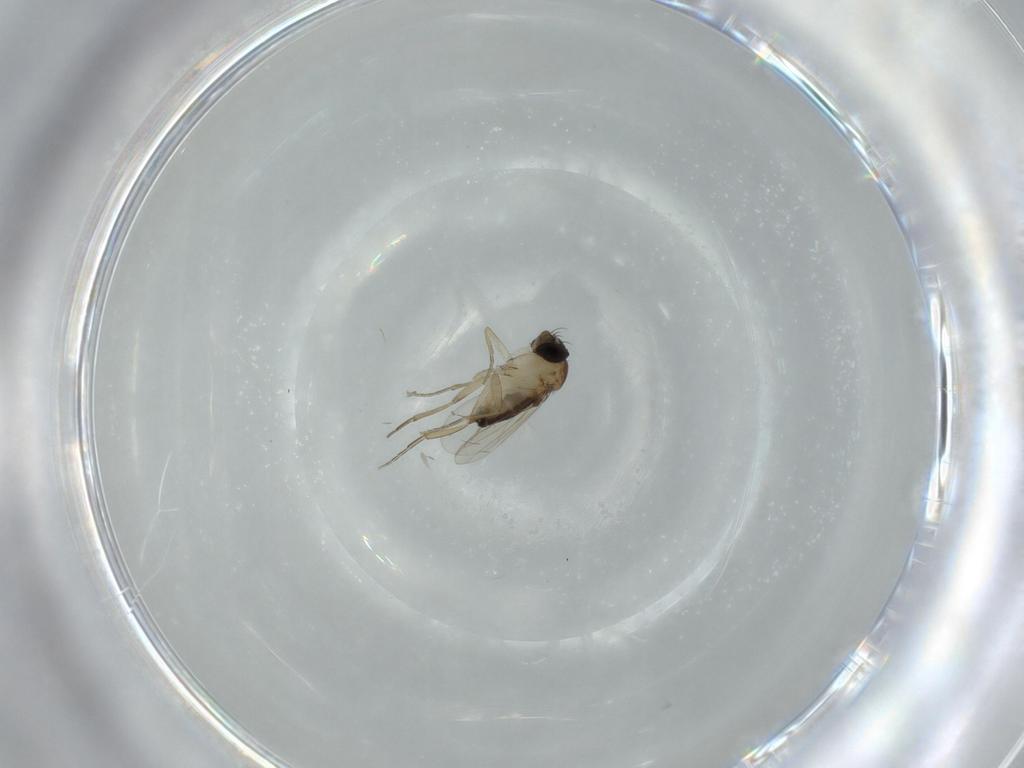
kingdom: Animalia
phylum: Arthropoda
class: Insecta
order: Diptera
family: Phoridae
